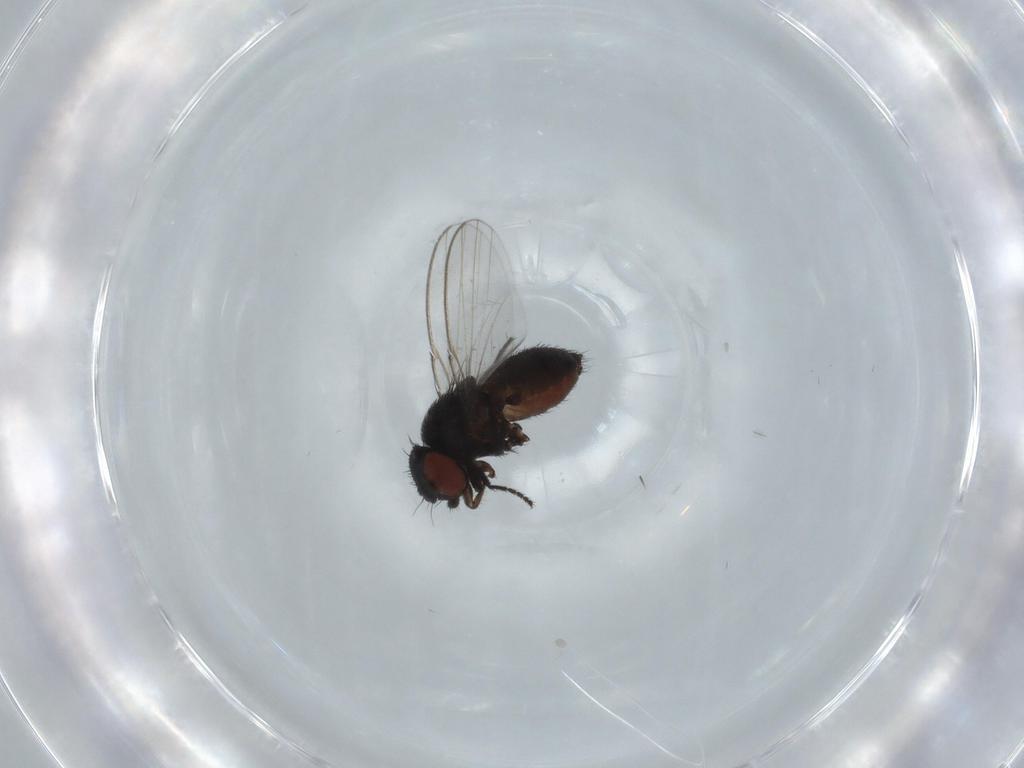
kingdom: Animalia
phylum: Arthropoda
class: Insecta
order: Diptera
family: Milichiidae
